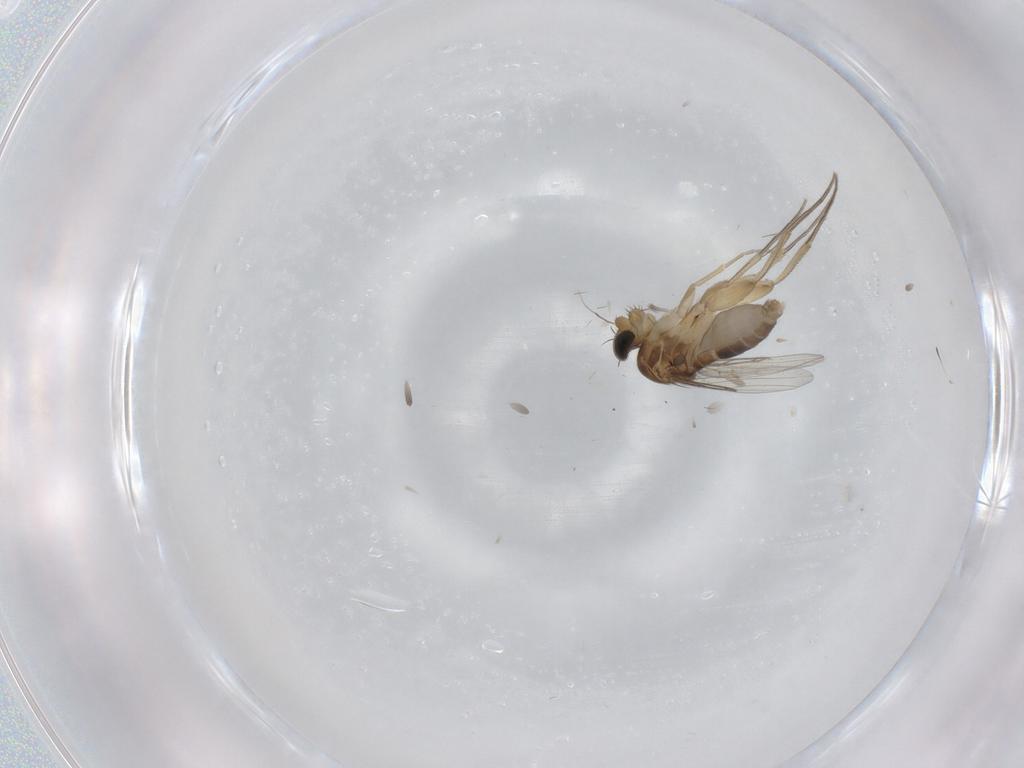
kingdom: Animalia
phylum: Arthropoda
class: Insecta
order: Diptera
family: Phoridae
